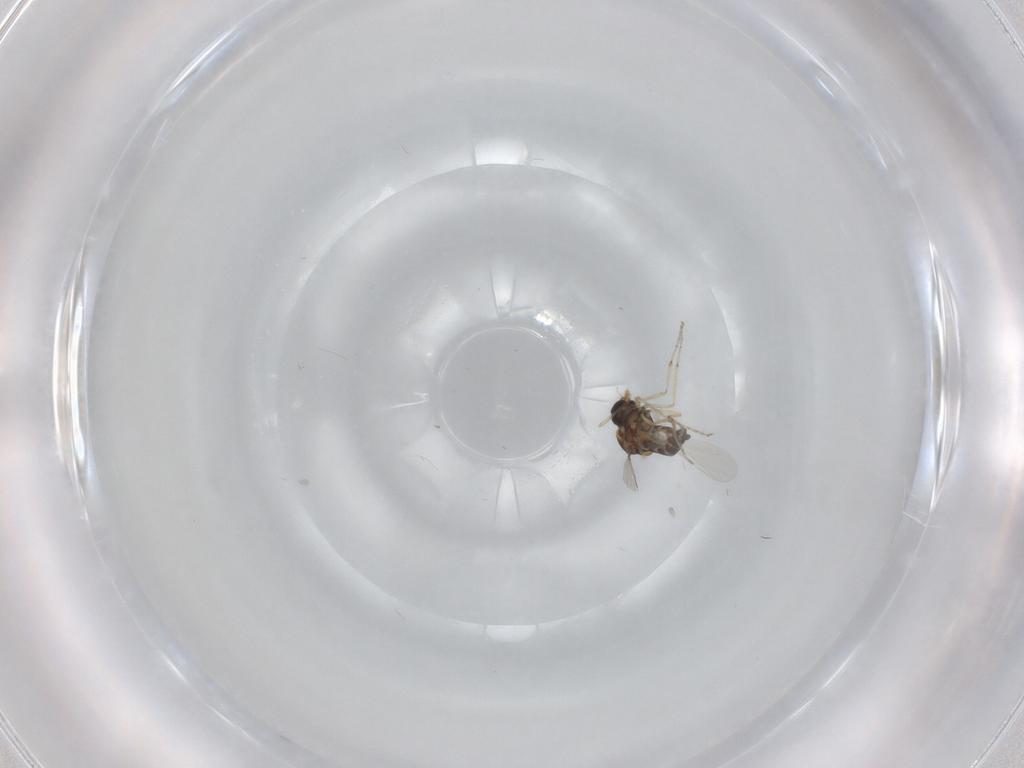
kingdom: Animalia
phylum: Arthropoda
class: Insecta
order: Diptera
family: Ceratopogonidae
